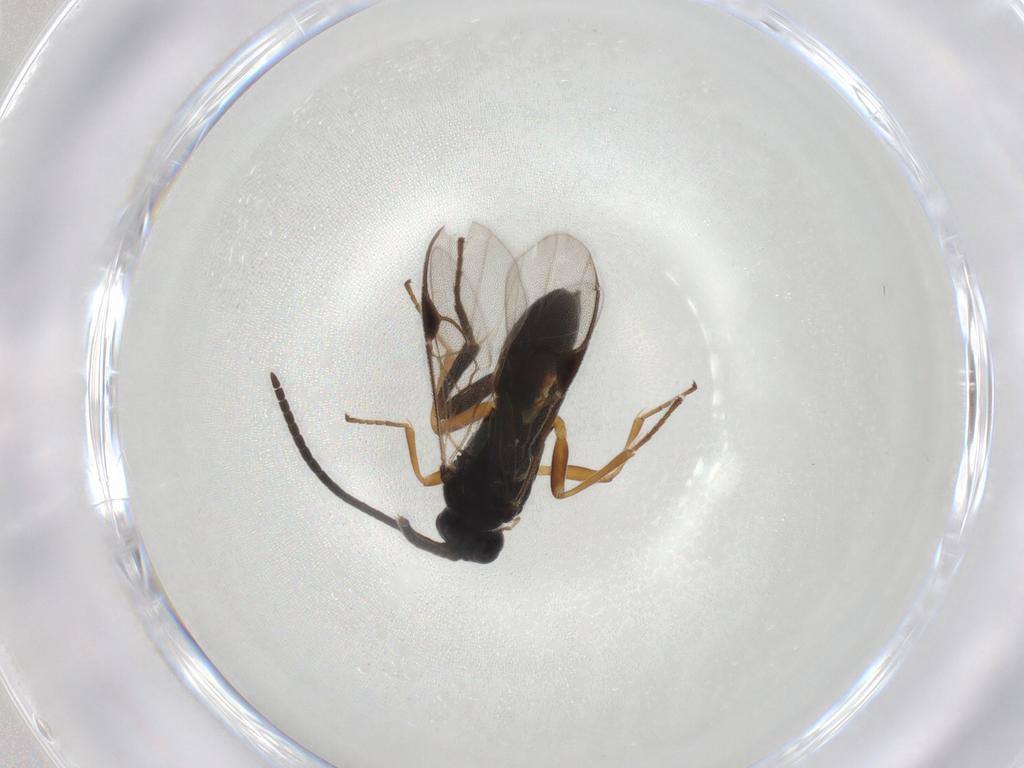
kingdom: Animalia
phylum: Arthropoda
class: Insecta
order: Hymenoptera
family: Braconidae
